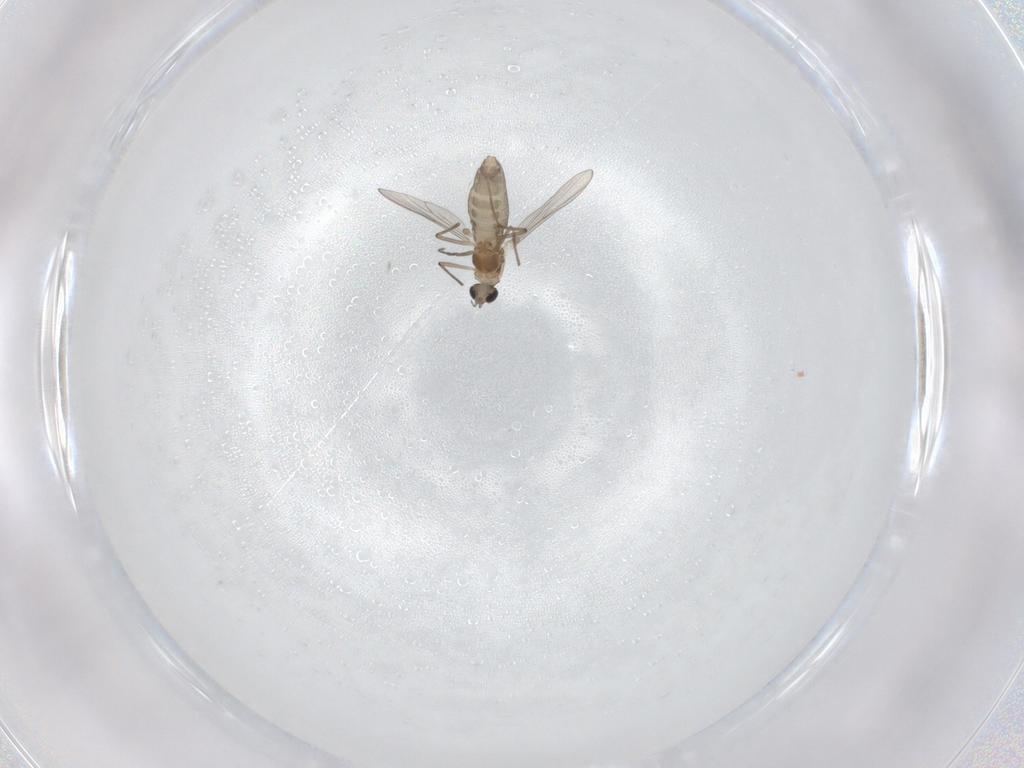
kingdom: Animalia
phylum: Arthropoda
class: Insecta
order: Diptera
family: Chironomidae
